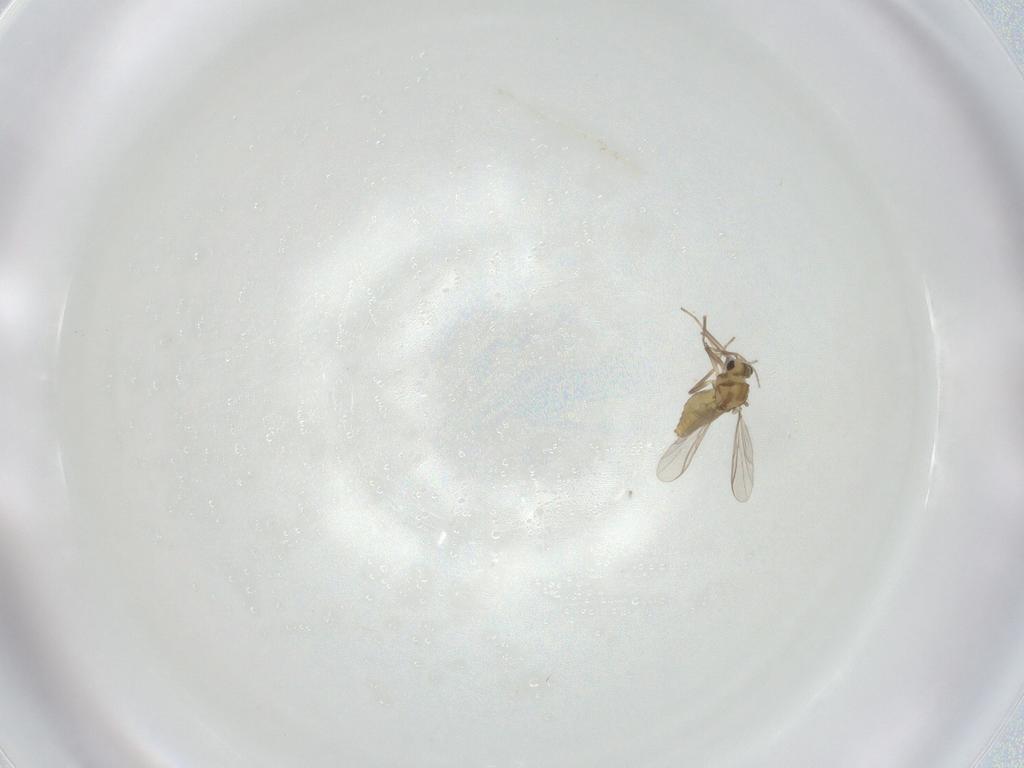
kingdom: Animalia
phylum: Arthropoda
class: Insecta
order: Diptera
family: Chironomidae
